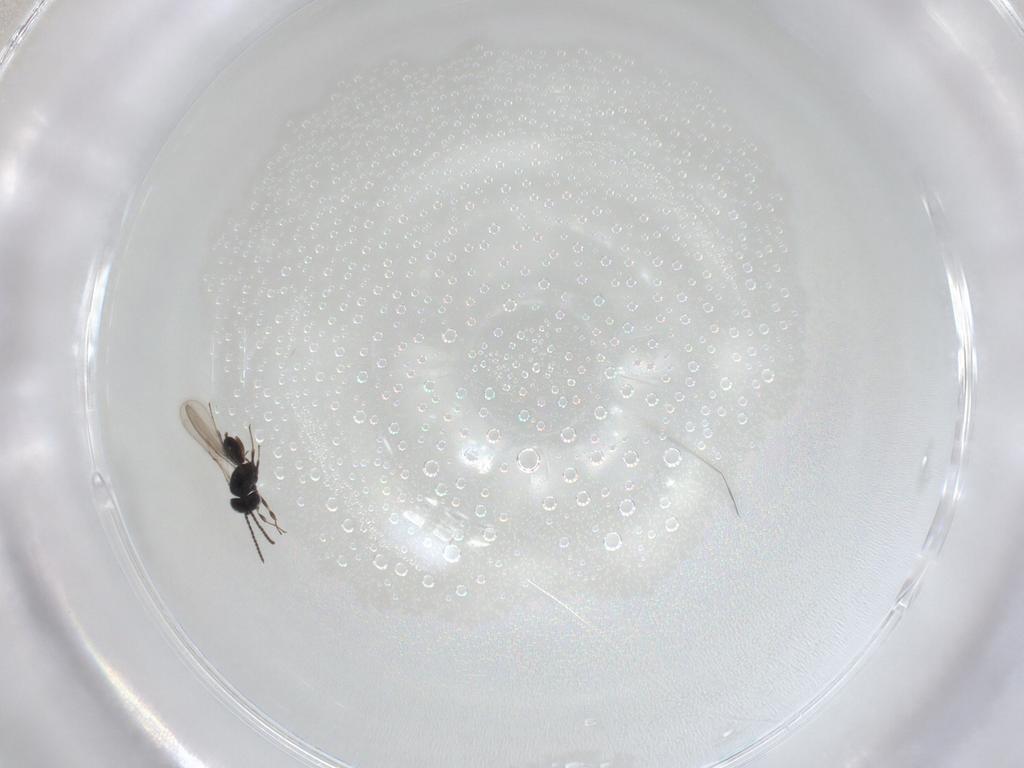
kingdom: Animalia
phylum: Arthropoda
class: Insecta
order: Hymenoptera
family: Scelionidae
